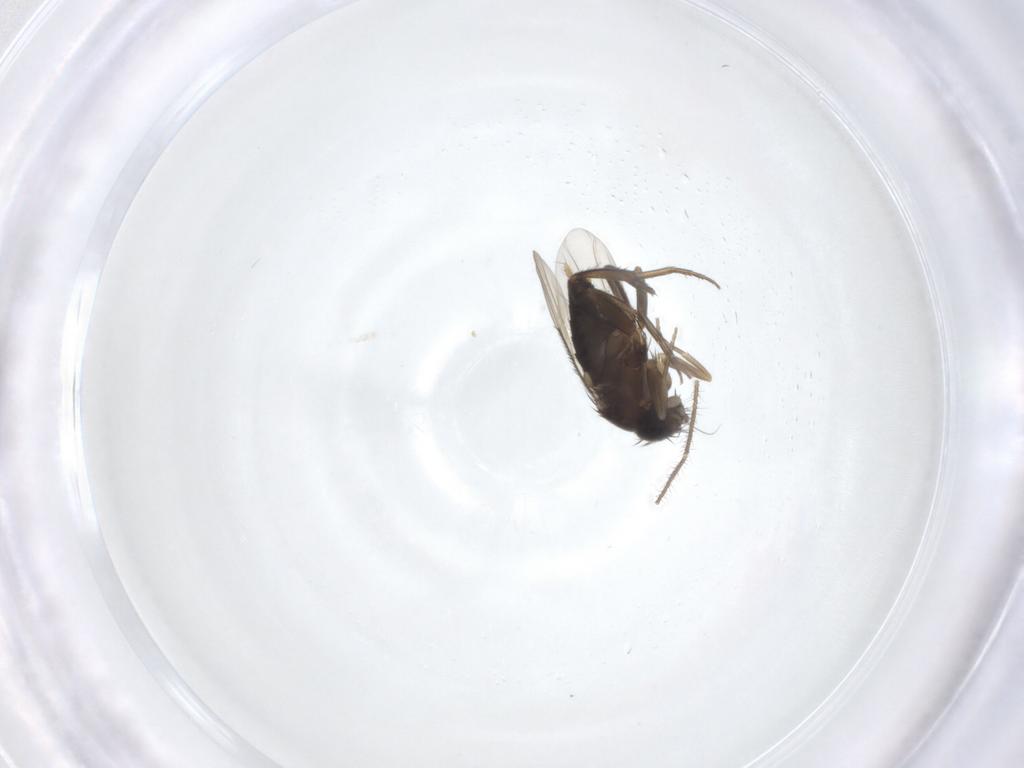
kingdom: Animalia
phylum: Arthropoda
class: Insecta
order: Diptera
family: Phoridae
